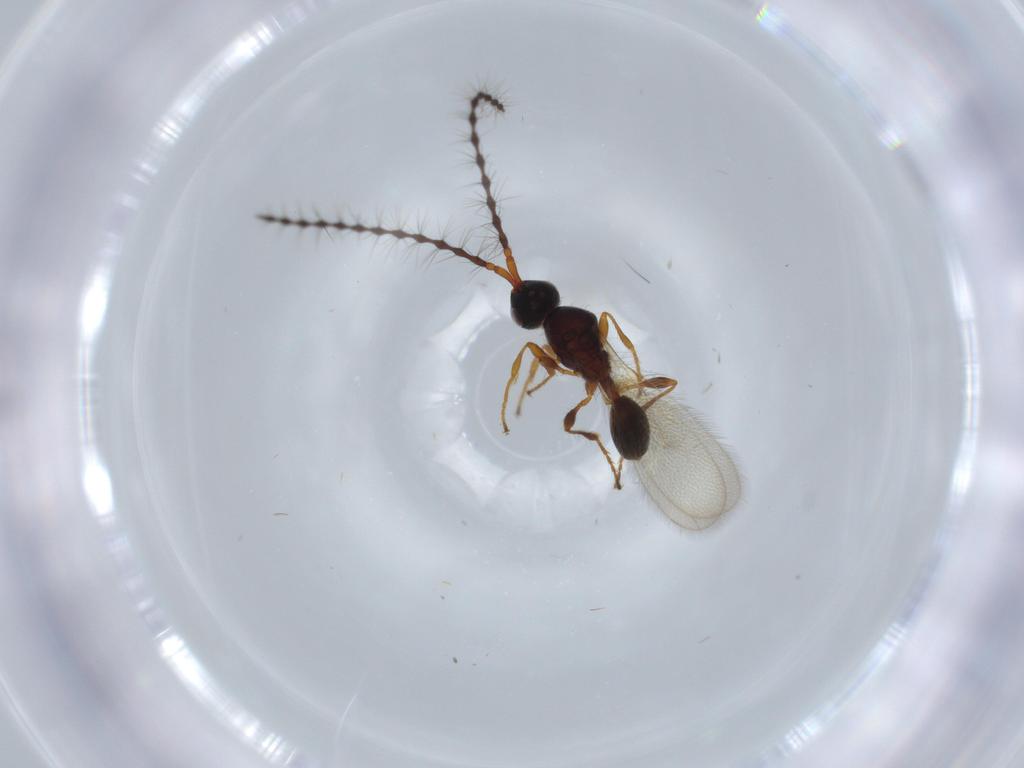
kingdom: Animalia
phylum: Arthropoda
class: Insecta
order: Hymenoptera
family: Diapriidae
